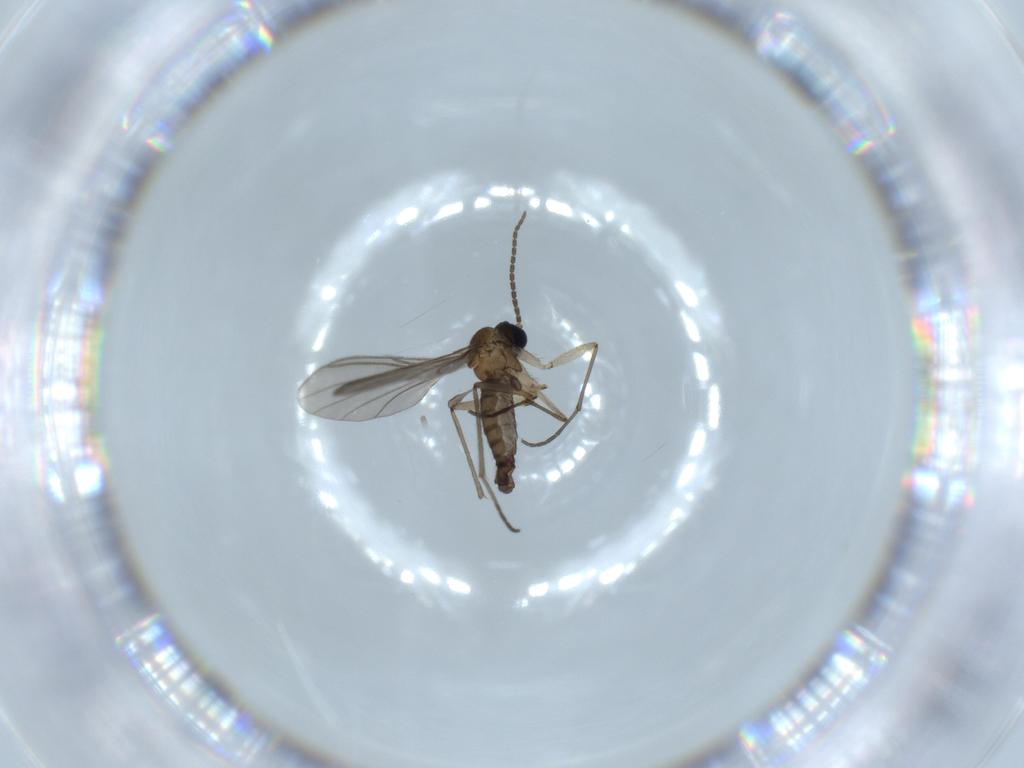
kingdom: Animalia
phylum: Arthropoda
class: Insecta
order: Diptera
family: Sciaridae
